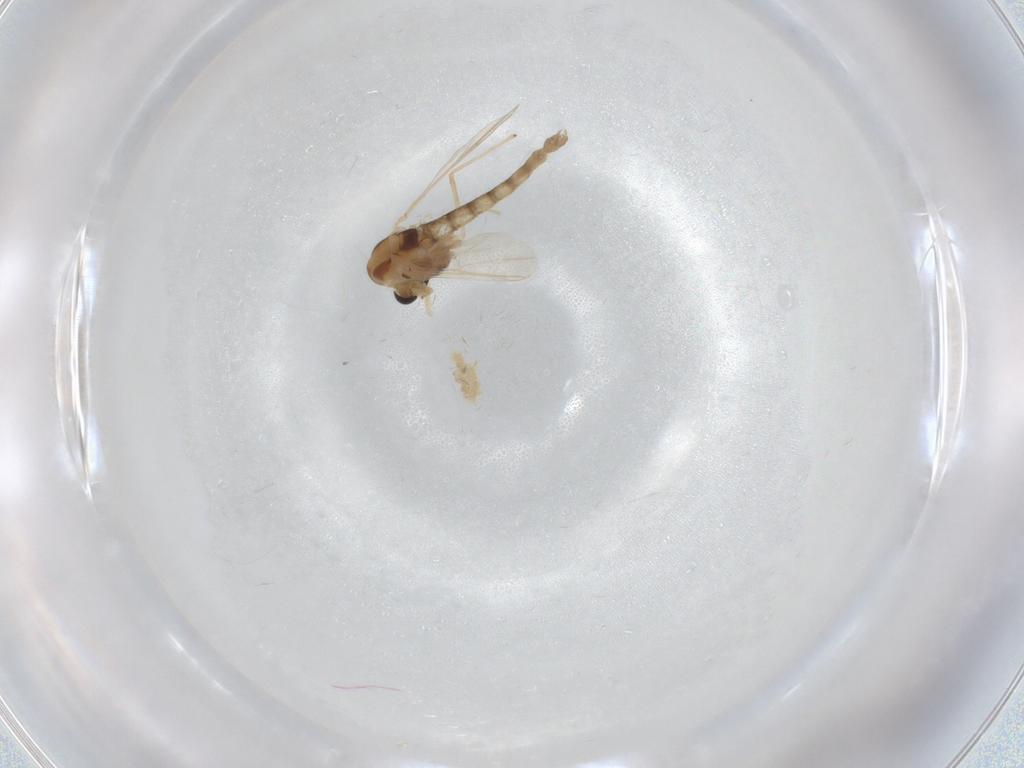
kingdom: Animalia
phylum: Arthropoda
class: Insecta
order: Diptera
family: Chironomidae
